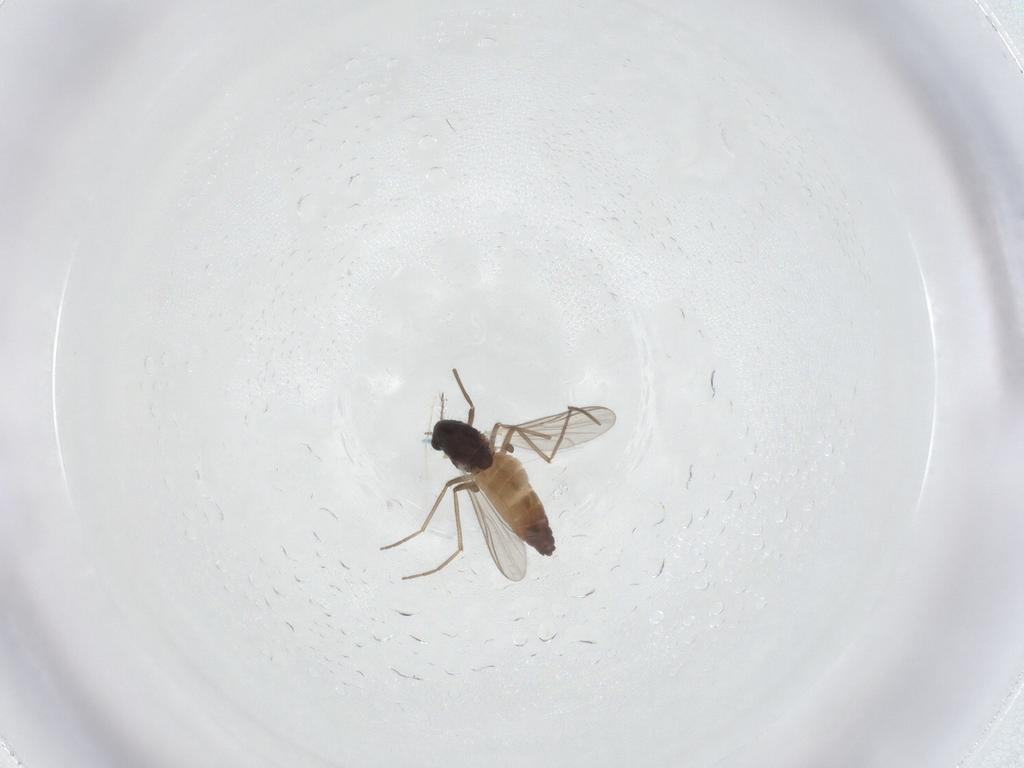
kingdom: Animalia
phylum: Arthropoda
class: Insecta
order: Diptera
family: Chironomidae
